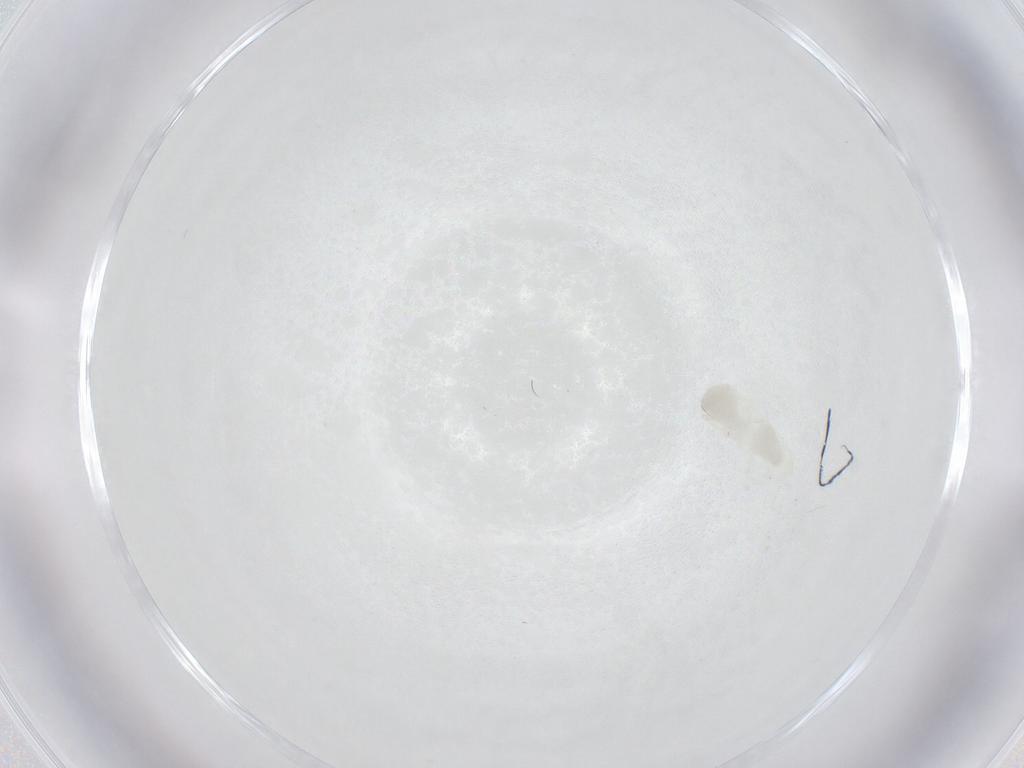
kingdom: Animalia
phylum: Arthropoda
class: Insecta
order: Hemiptera
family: Aleyrodidae
